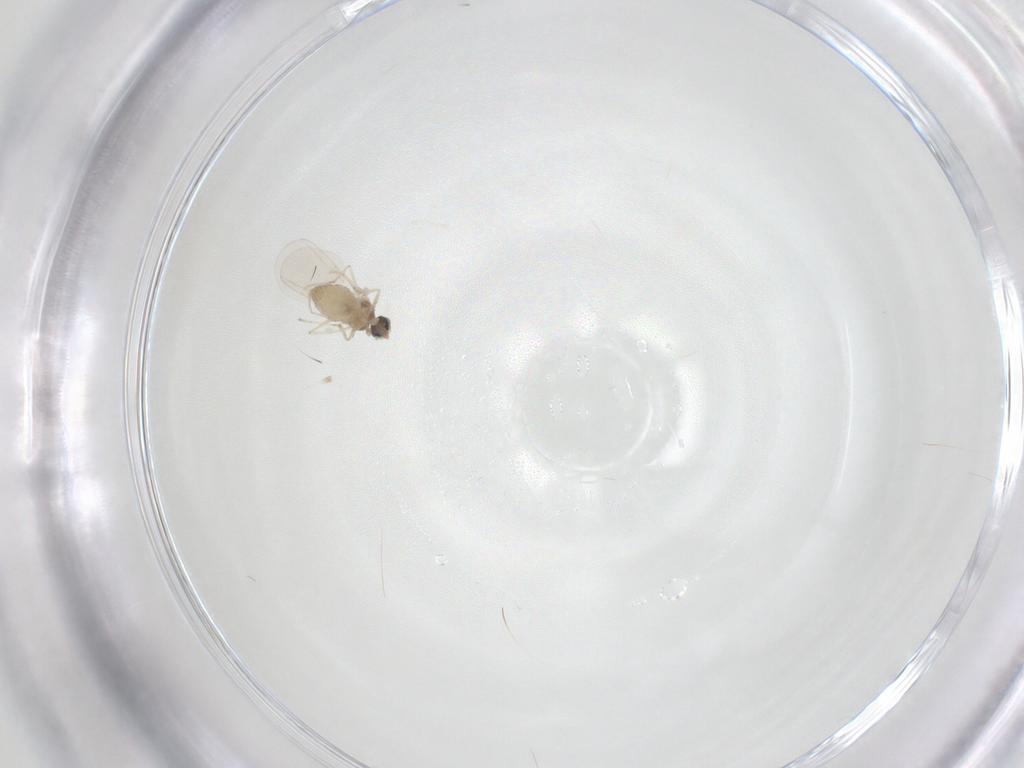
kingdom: Animalia
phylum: Arthropoda
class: Insecta
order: Diptera
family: Cecidomyiidae
